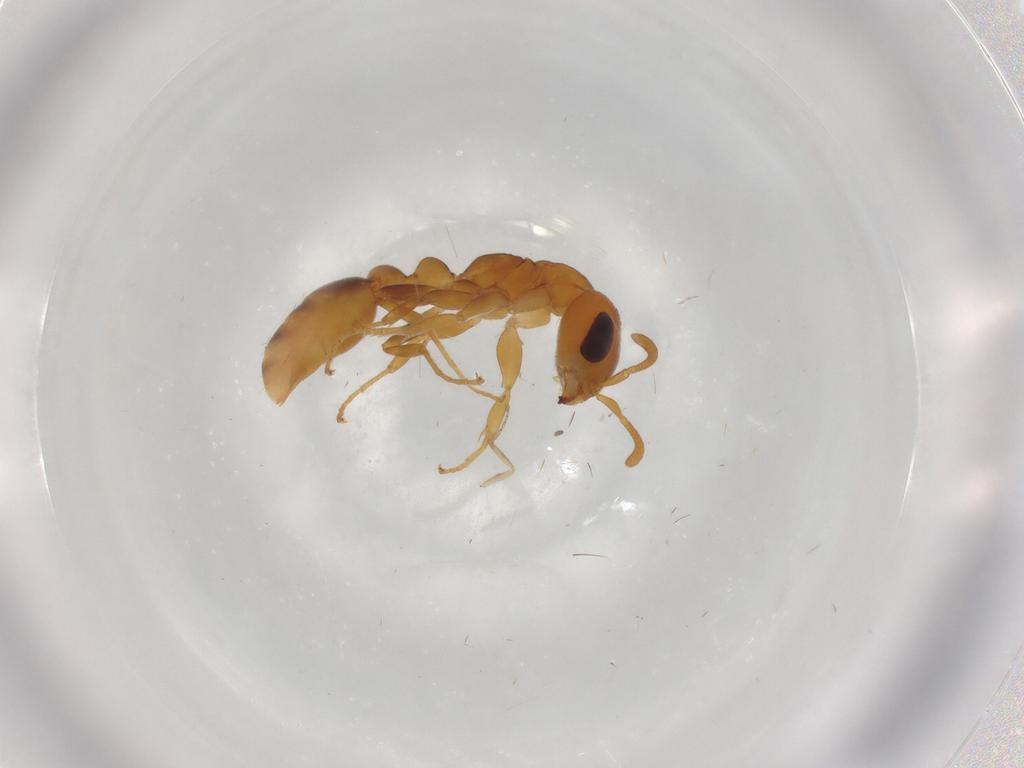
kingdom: Animalia
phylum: Arthropoda
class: Insecta
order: Hymenoptera
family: Formicidae
